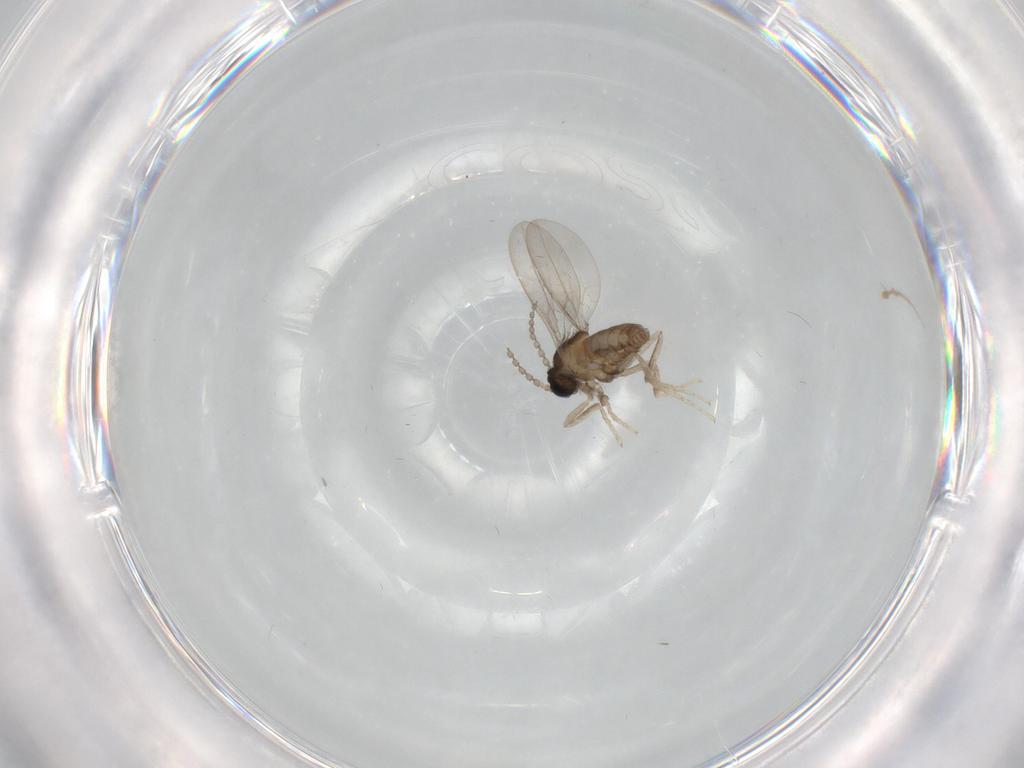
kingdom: Animalia
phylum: Arthropoda
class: Insecta
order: Diptera
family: Cecidomyiidae
